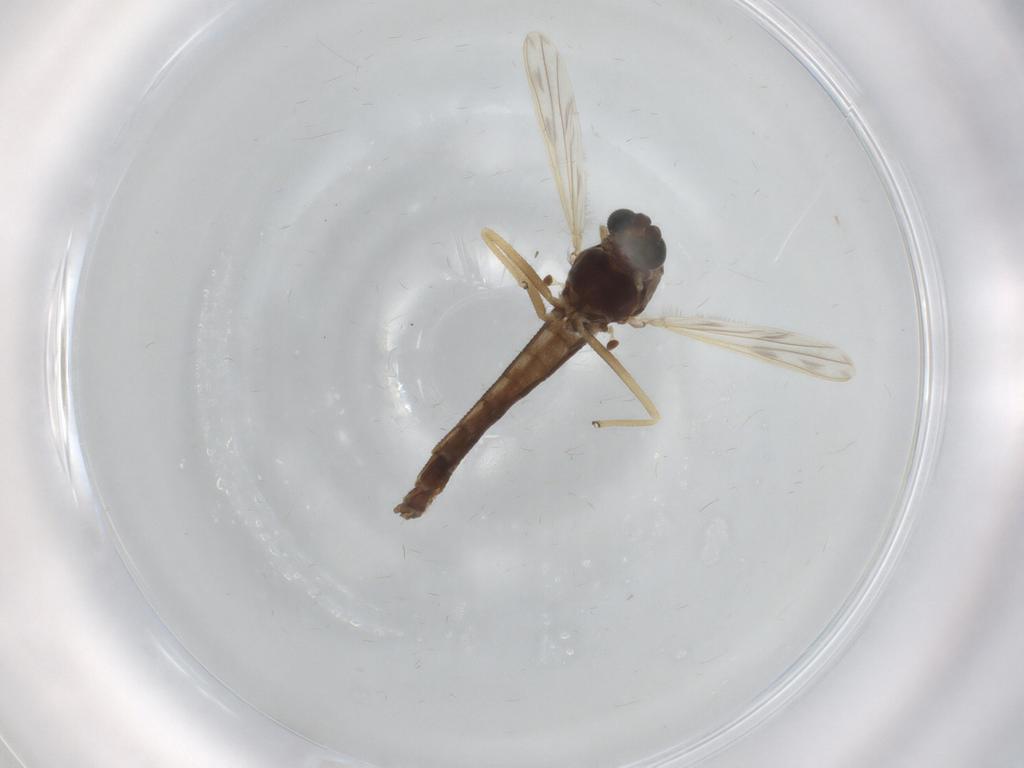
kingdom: Animalia
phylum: Arthropoda
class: Insecta
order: Diptera
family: Chironomidae
